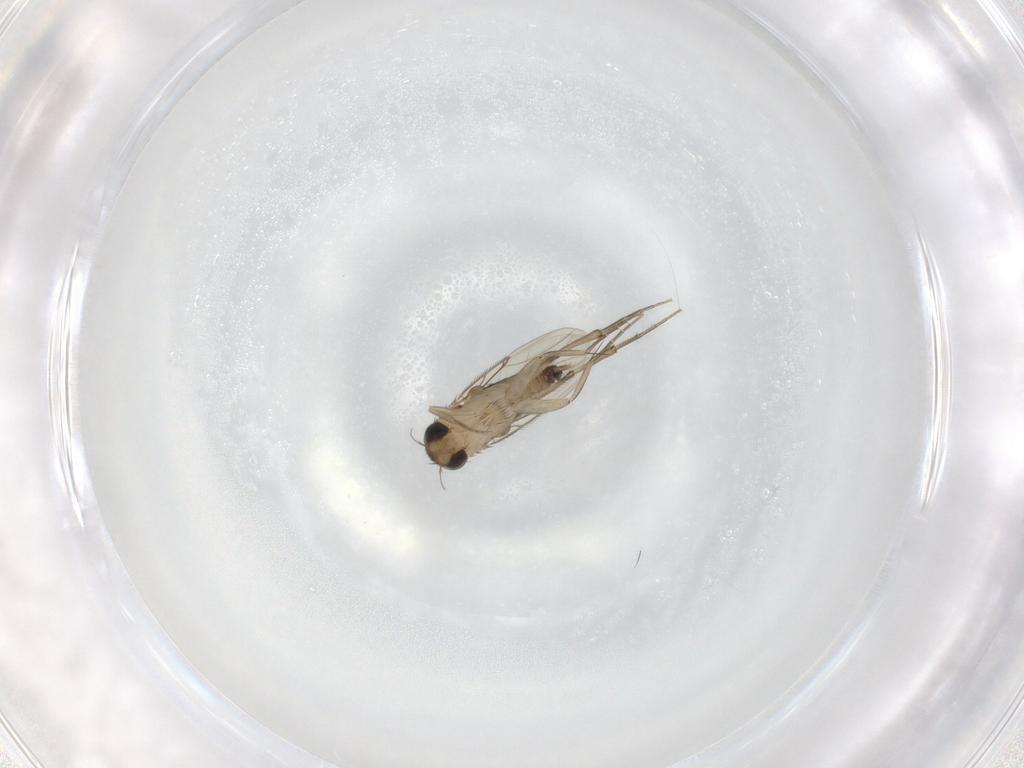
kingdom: Animalia
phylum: Arthropoda
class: Insecta
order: Diptera
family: Phoridae
